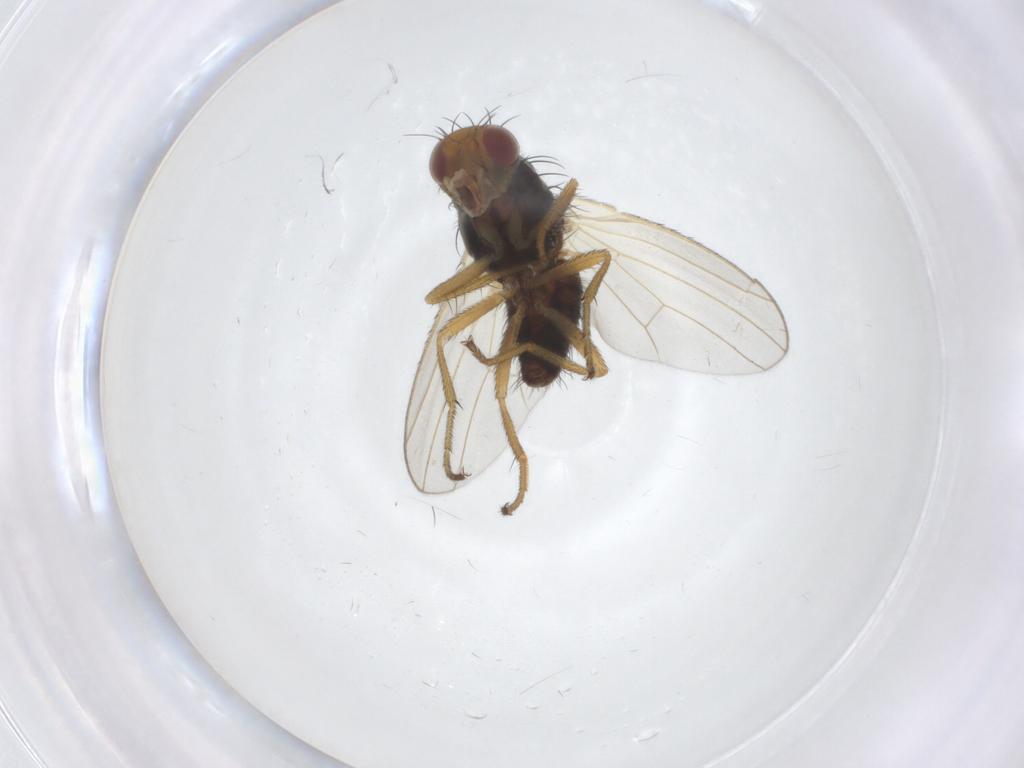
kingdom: Animalia
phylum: Arthropoda
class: Insecta
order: Diptera
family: Heleomyzidae
